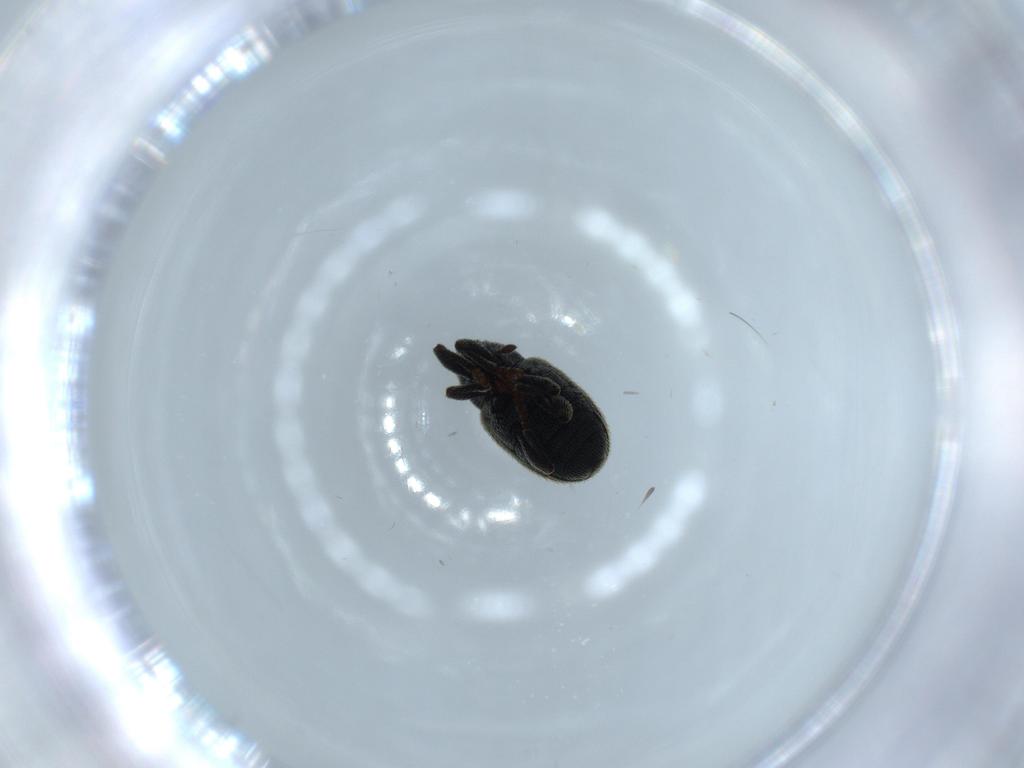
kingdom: Animalia
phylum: Arthropoda
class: Insecta
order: Coleoptera
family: Curculionidae
